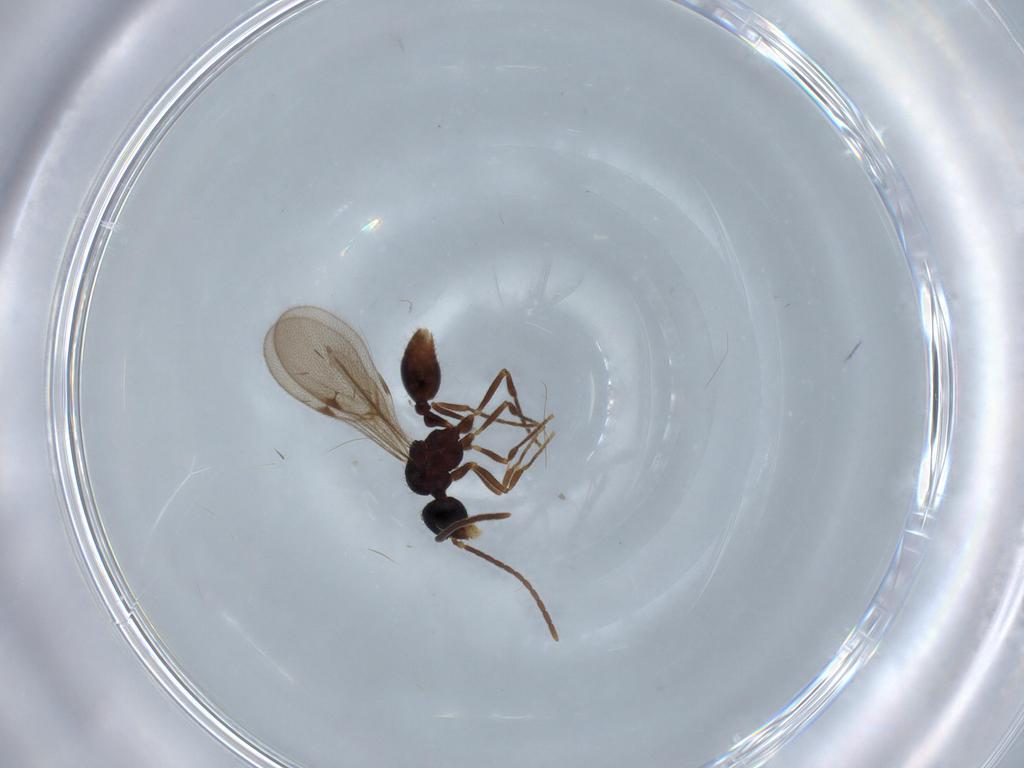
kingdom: Animalia
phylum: Arthropoda
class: Insecta
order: Hymenoptera
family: Formicidae
